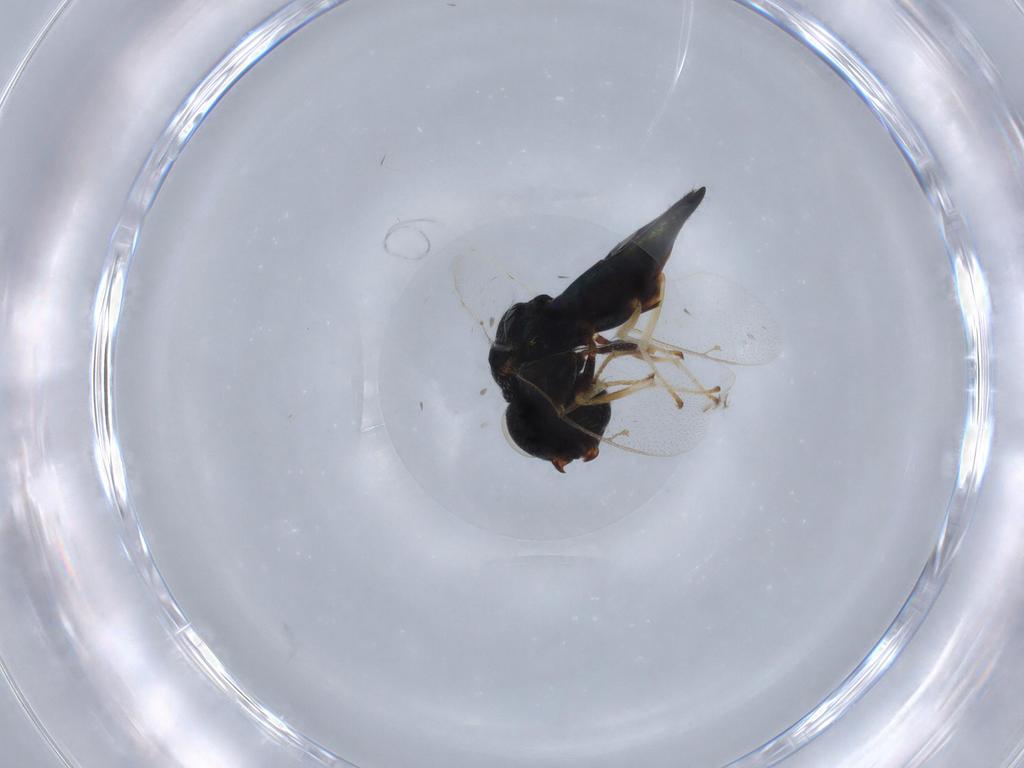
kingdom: Animalia
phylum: Arthropoda
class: Insecta
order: Hymenoptera
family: Pteromalidae
